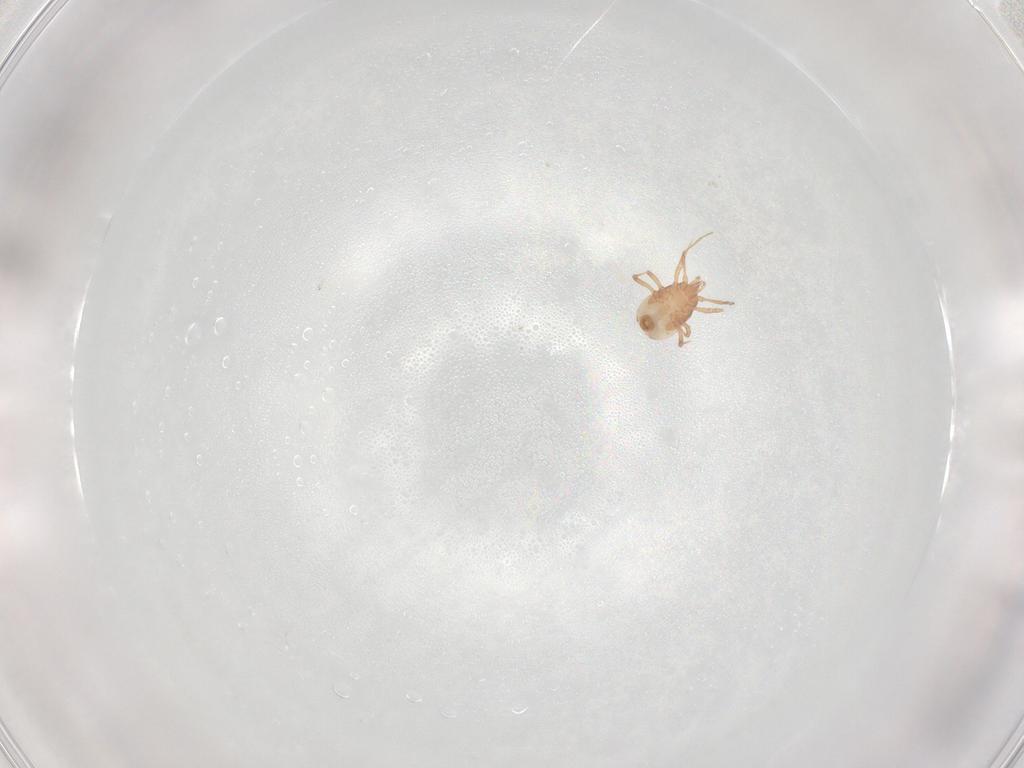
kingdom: Animalia
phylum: Arthropoda
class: Arachnida
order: Mesostigmata
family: Blattisociidae
